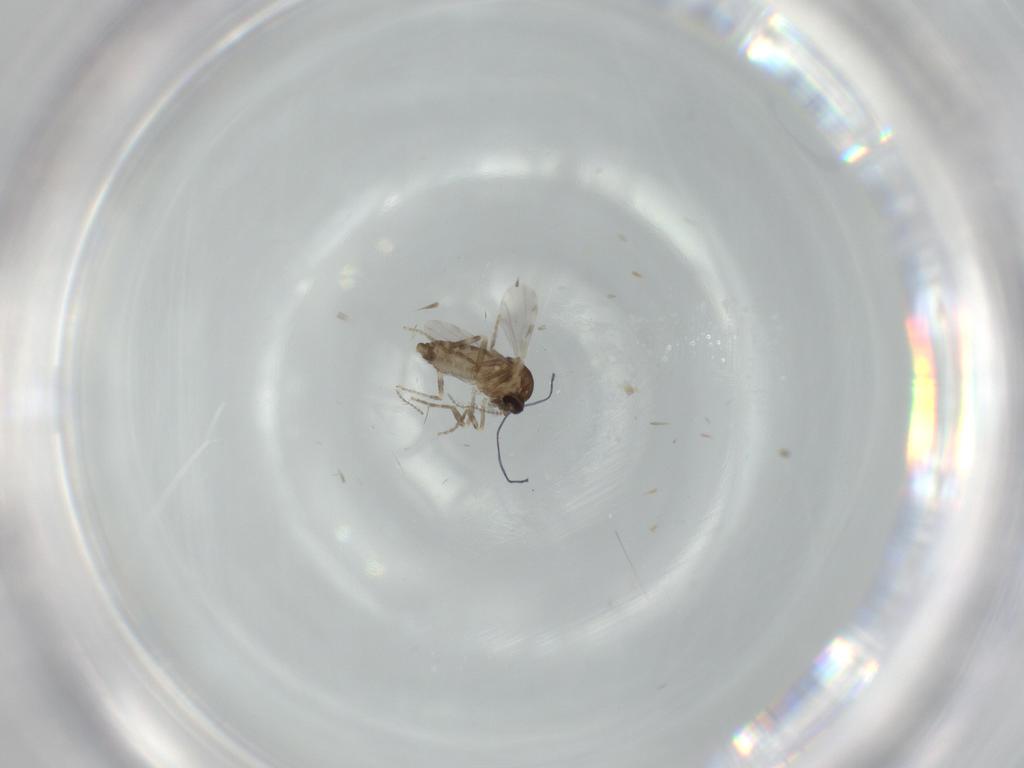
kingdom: Animalia
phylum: Arthropoda
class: Insecta
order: Diptera
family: Ceratopogonidae
